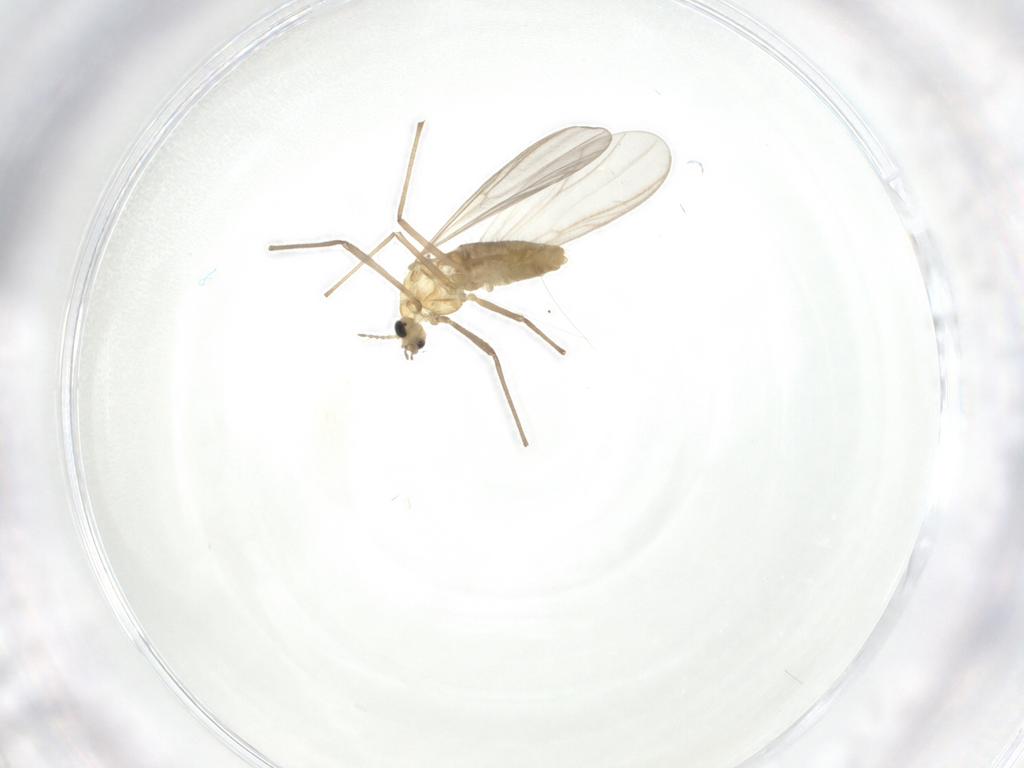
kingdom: Animalia
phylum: Arthropoda
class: Insecta
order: Diptera
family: Chironomidae
